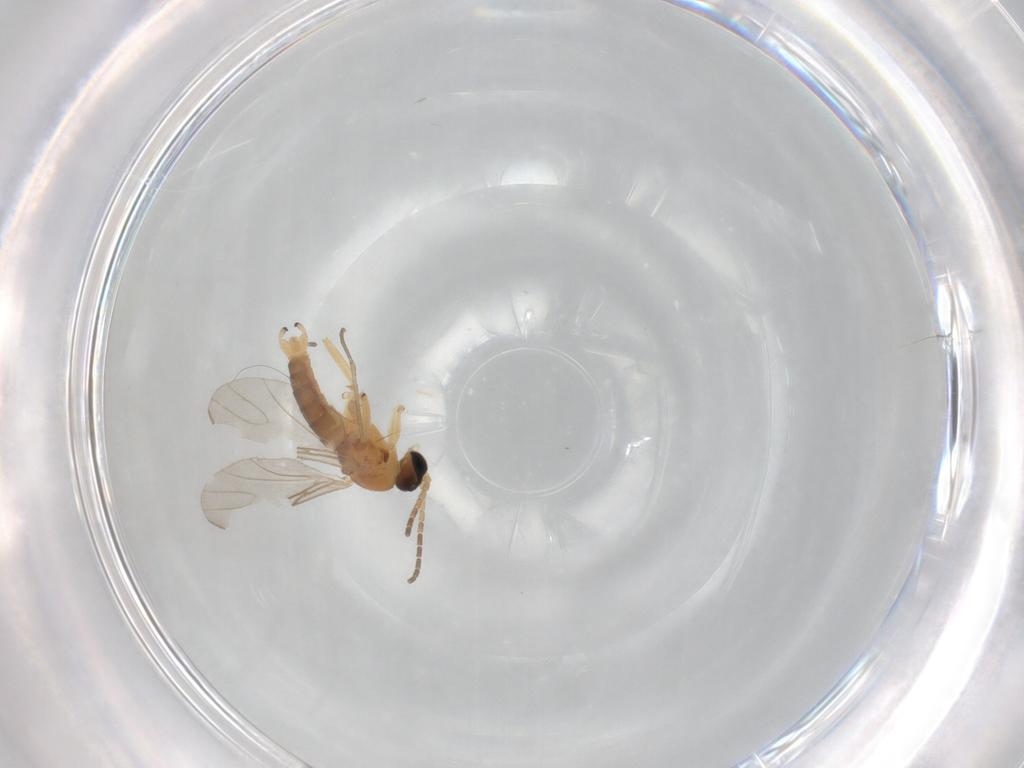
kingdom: Animalia
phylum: Arthropoda
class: Insecta
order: Diptera
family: Sciaridae
